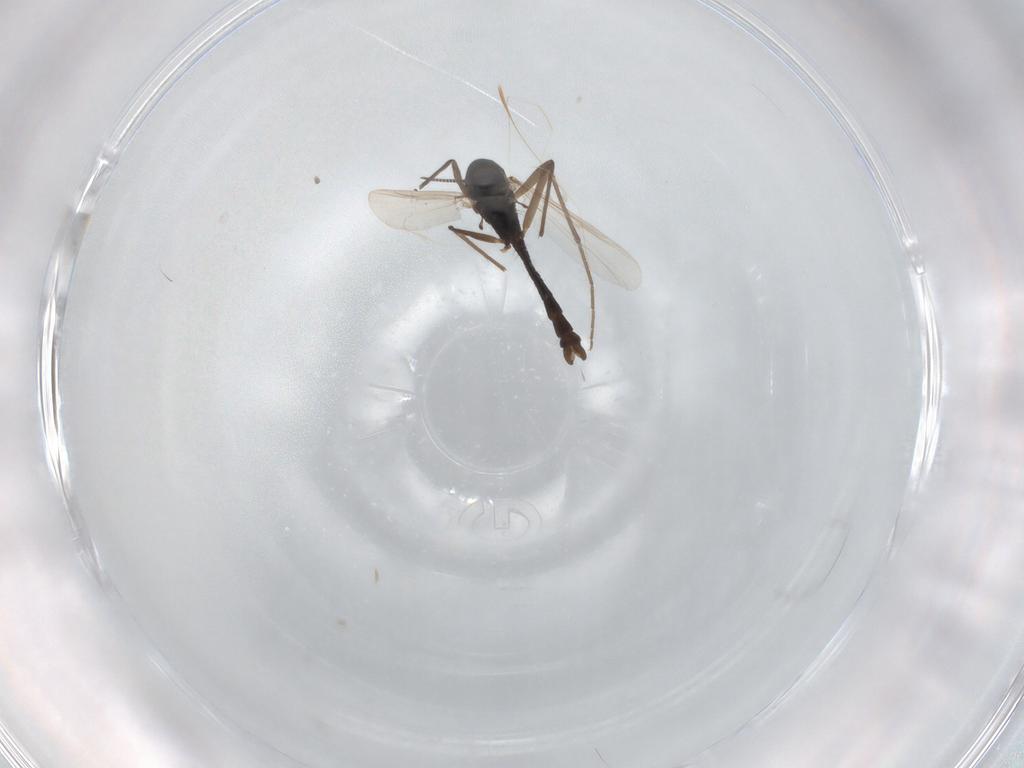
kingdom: Animalia
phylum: Arthropoda
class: Insecta
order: Diptera
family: Chironomidae
